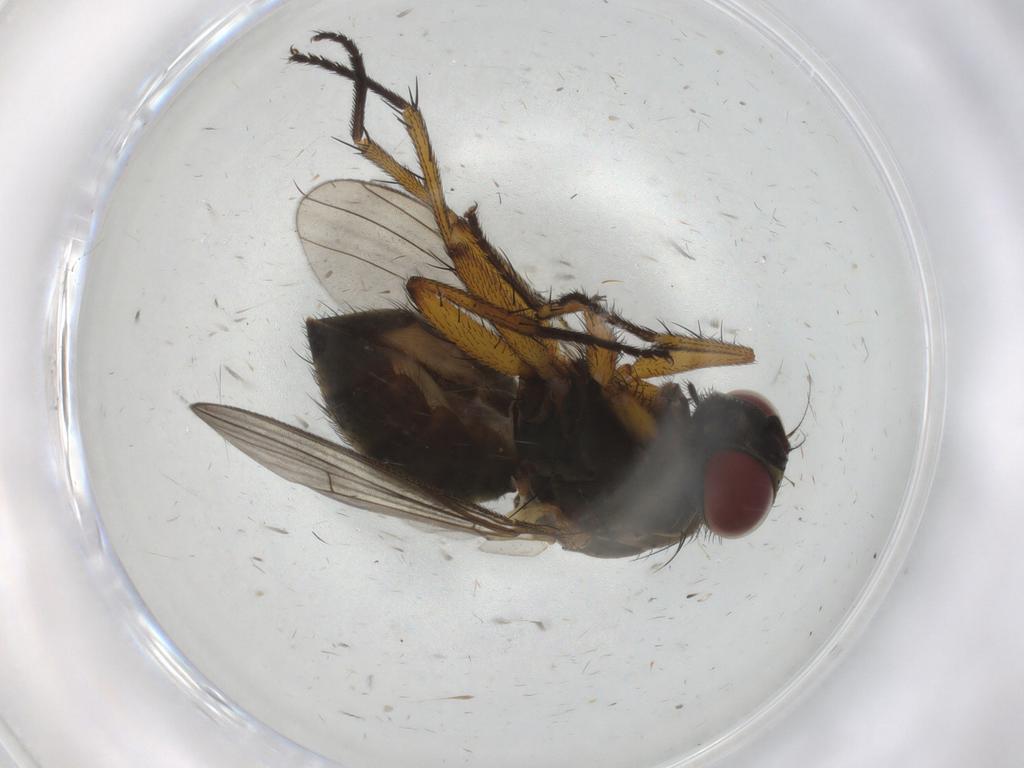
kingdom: Animalia
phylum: Arthropoda
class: Insecta
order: Diptera
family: Muscidae
